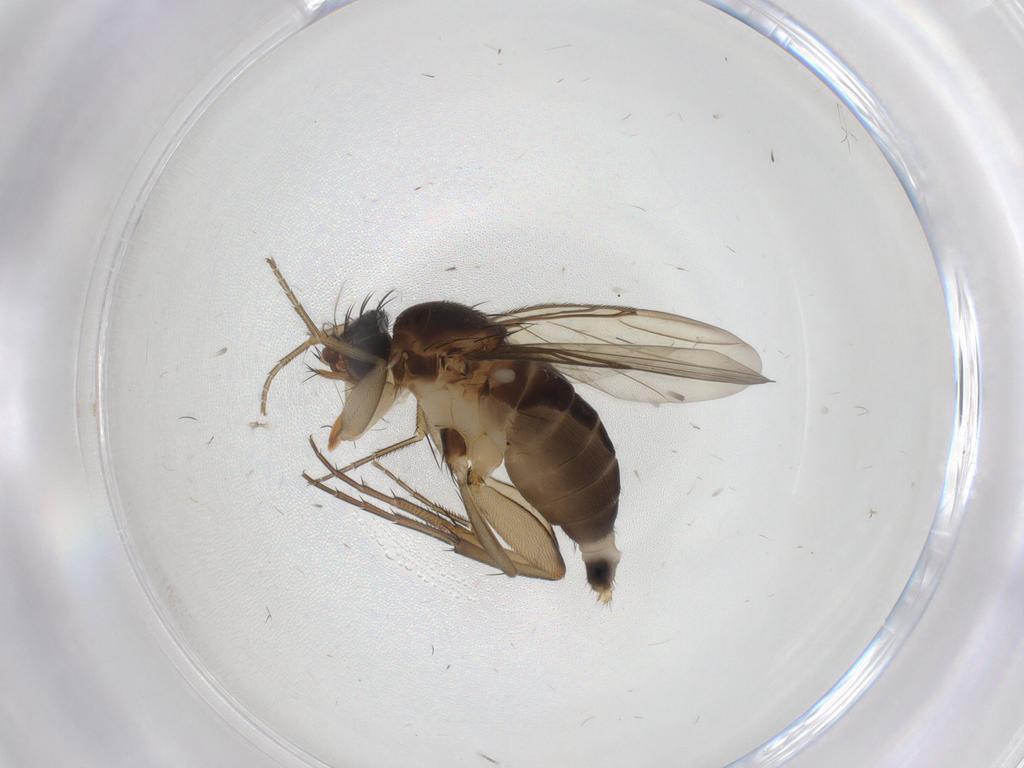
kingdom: Animalia
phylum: Arthropoda
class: Insecta
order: Diptera
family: Phoridae
